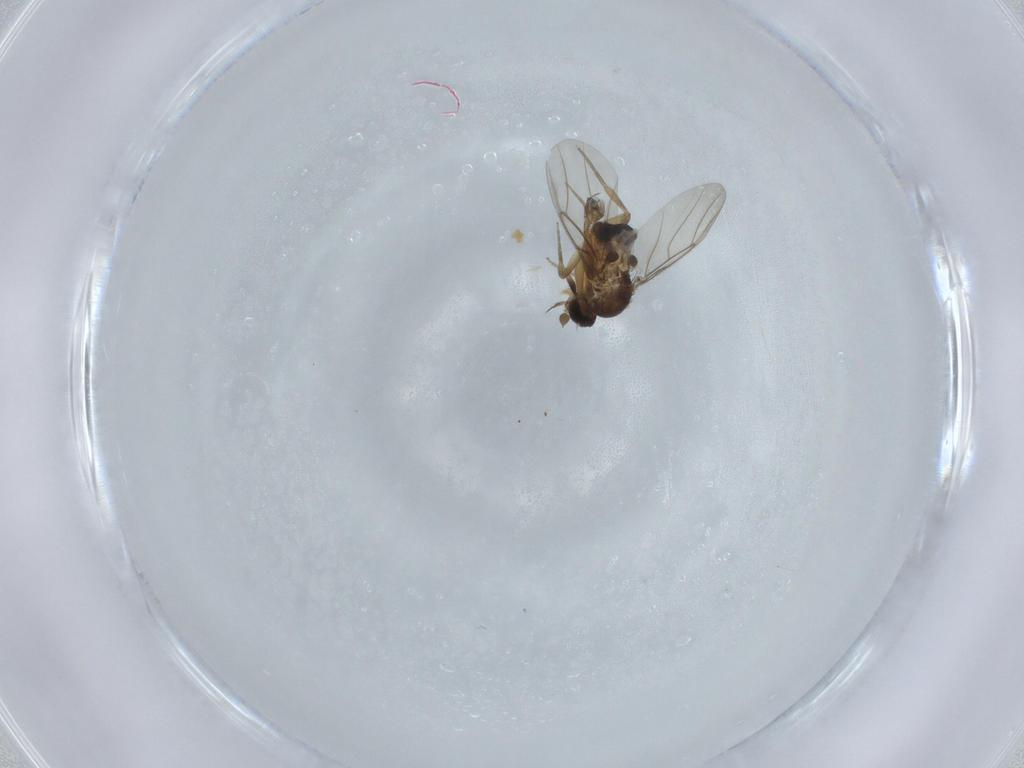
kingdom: Animalia
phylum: Arthropoda
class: Insecta
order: Diptera
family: Phoridae
